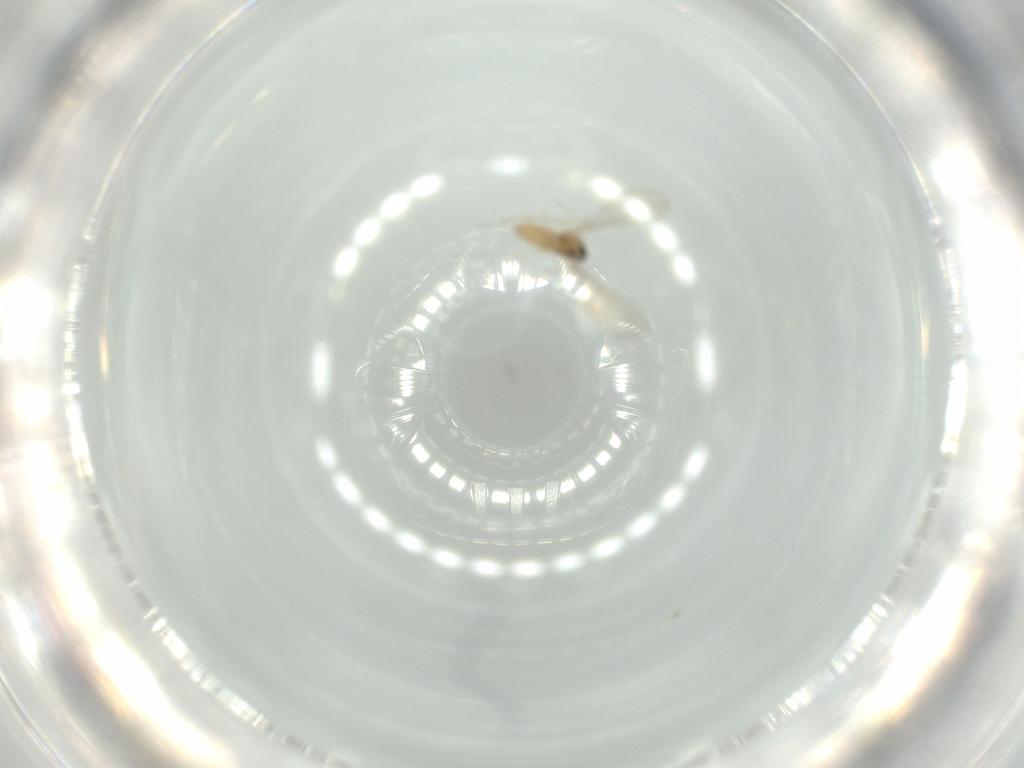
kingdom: Animalia
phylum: Arthropoda
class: Insecta
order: Diptera
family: Cecidomyiidae
